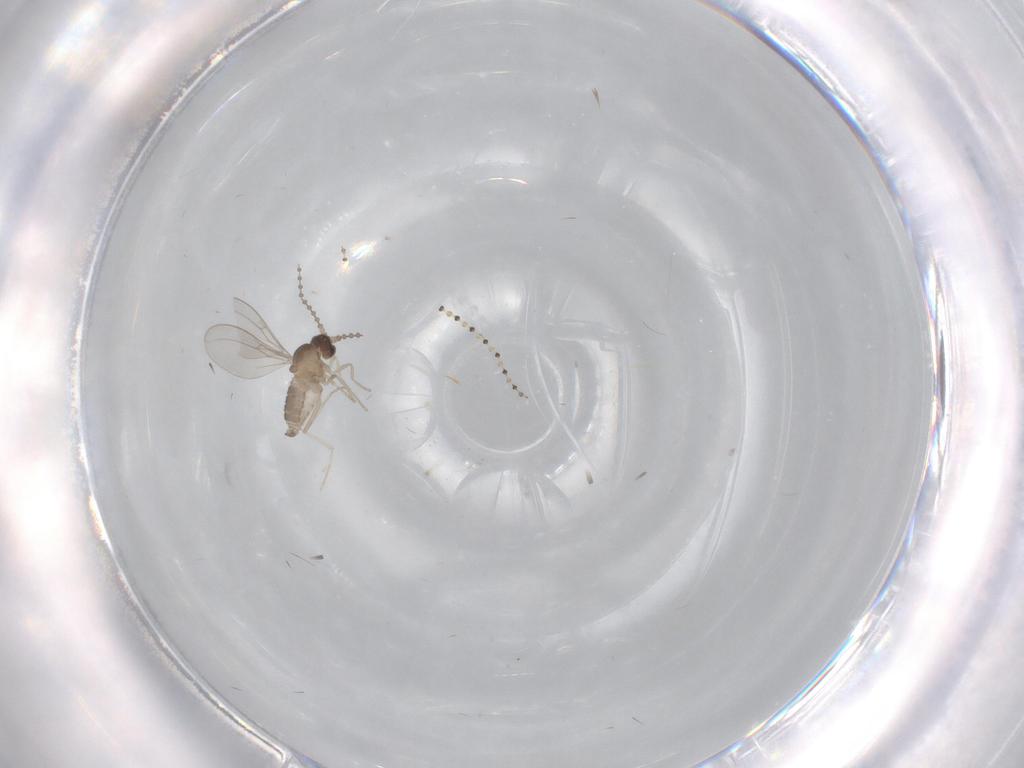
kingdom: Animalia
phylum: Arthropoda
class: Insecta
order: Diptera
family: Cecidomyiidae
